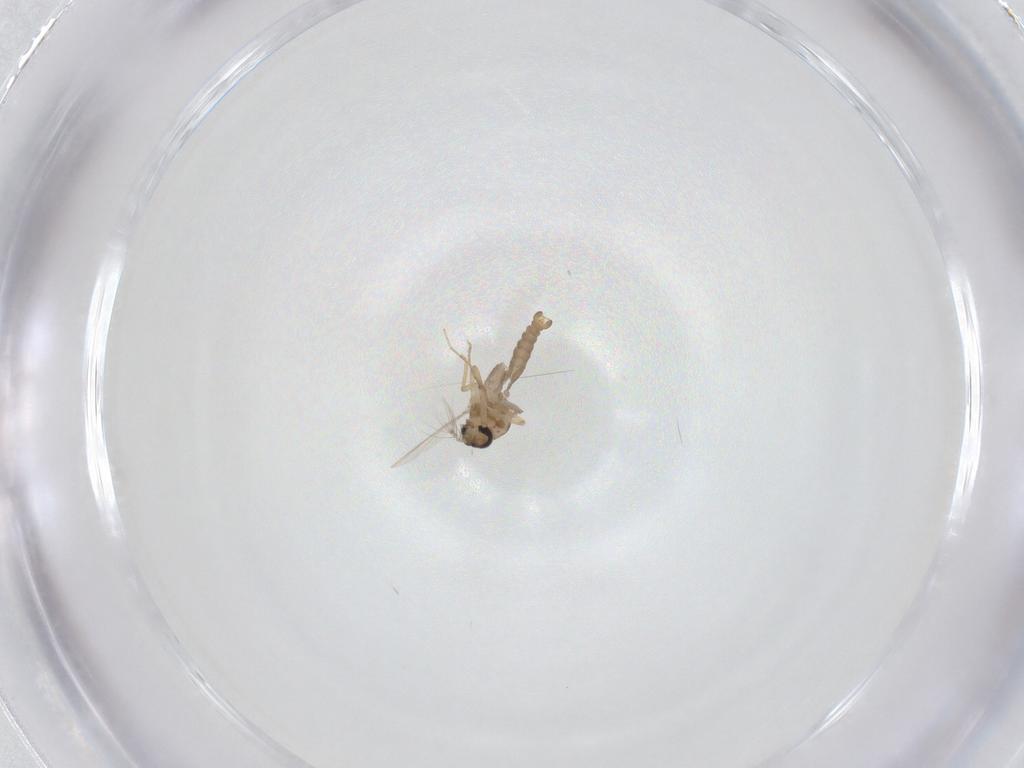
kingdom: Animalia
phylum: Arthropoda
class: Insecta
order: Diptera
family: Ceratopogonidae
